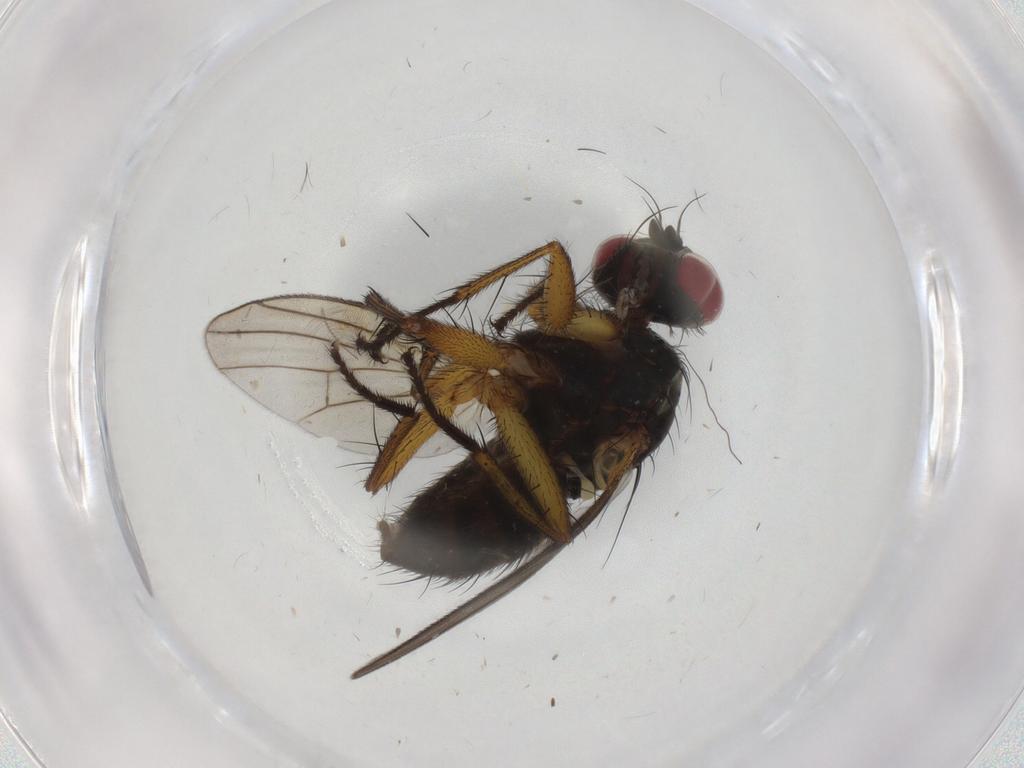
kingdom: Animalia
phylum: Arthropoda
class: Insecta
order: Diptera
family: Muscidae
